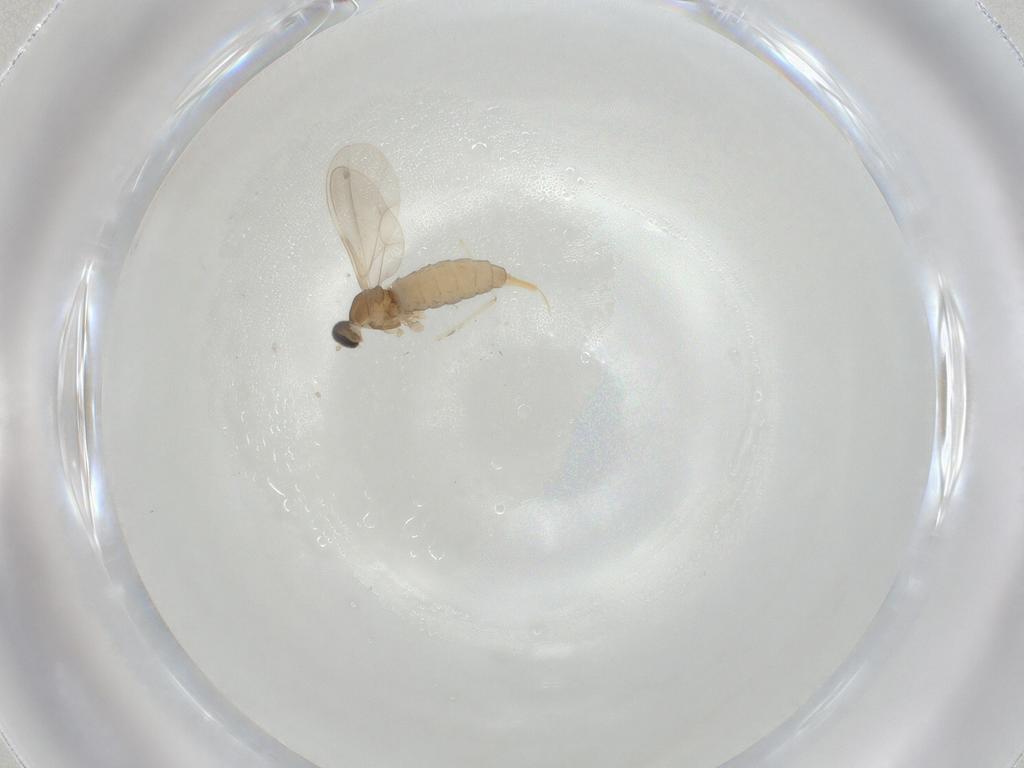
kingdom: Animalia
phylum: Arthropoda
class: Insecta
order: Diptera
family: Cecidomyiidae
